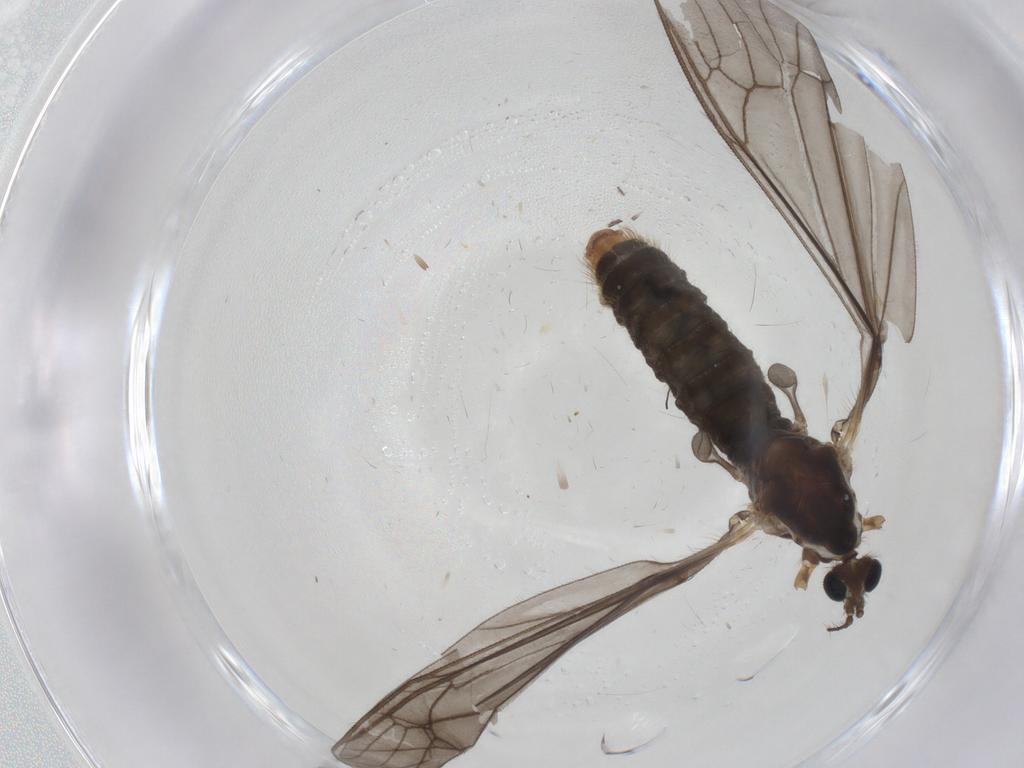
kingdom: Animalia
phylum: Arthropoda
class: Insecta
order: Diptera
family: Limoniidae
